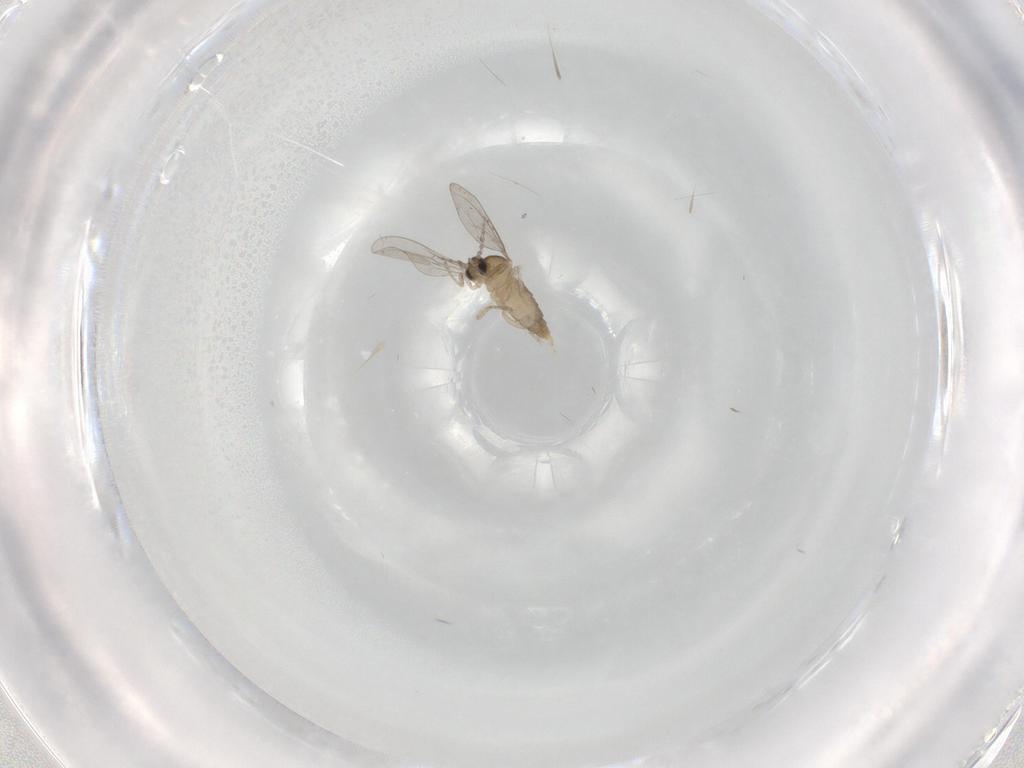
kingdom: Animalia
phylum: Arthropoda
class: Insecta
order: Diptera
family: Cecidomyiidae
